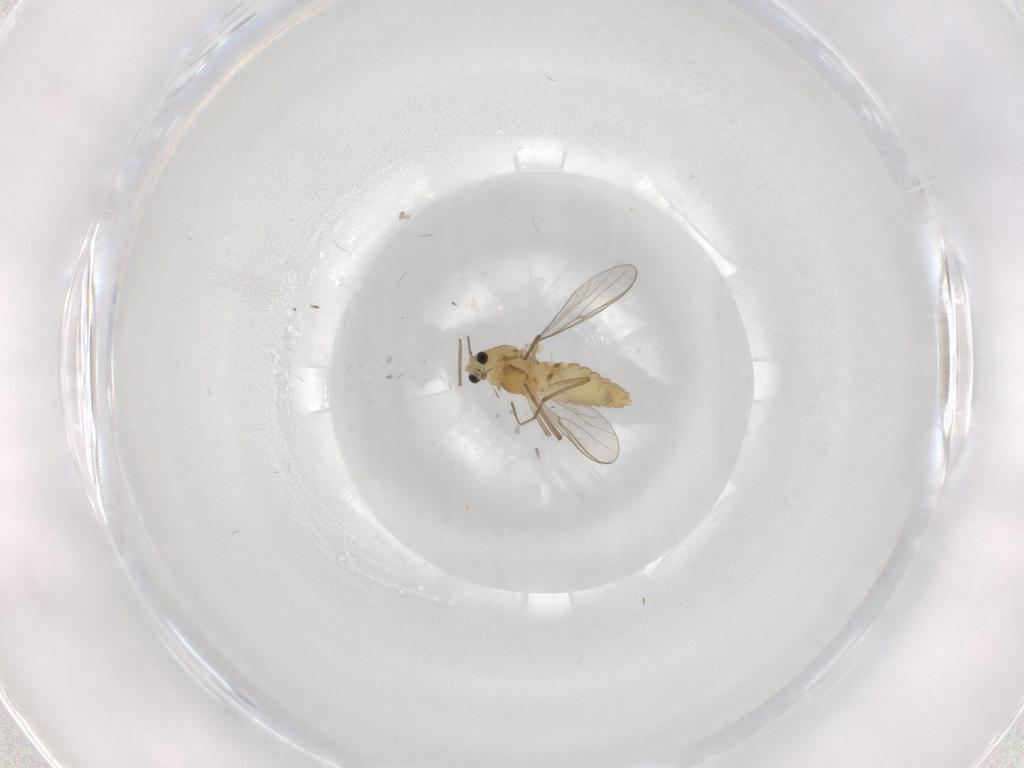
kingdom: Animalia
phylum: Arthropoda
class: Insecta
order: Diptera
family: Chironomidae
